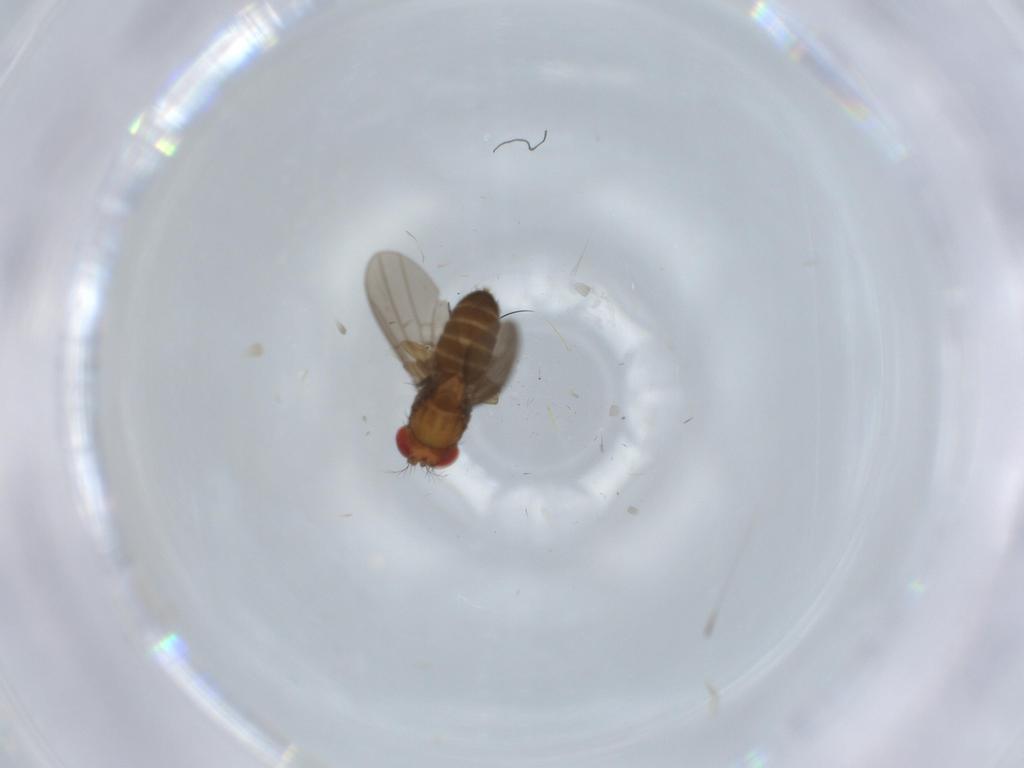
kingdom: Animalia
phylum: Arthropoda
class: Insecta
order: Diptera
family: Drosophilidae
